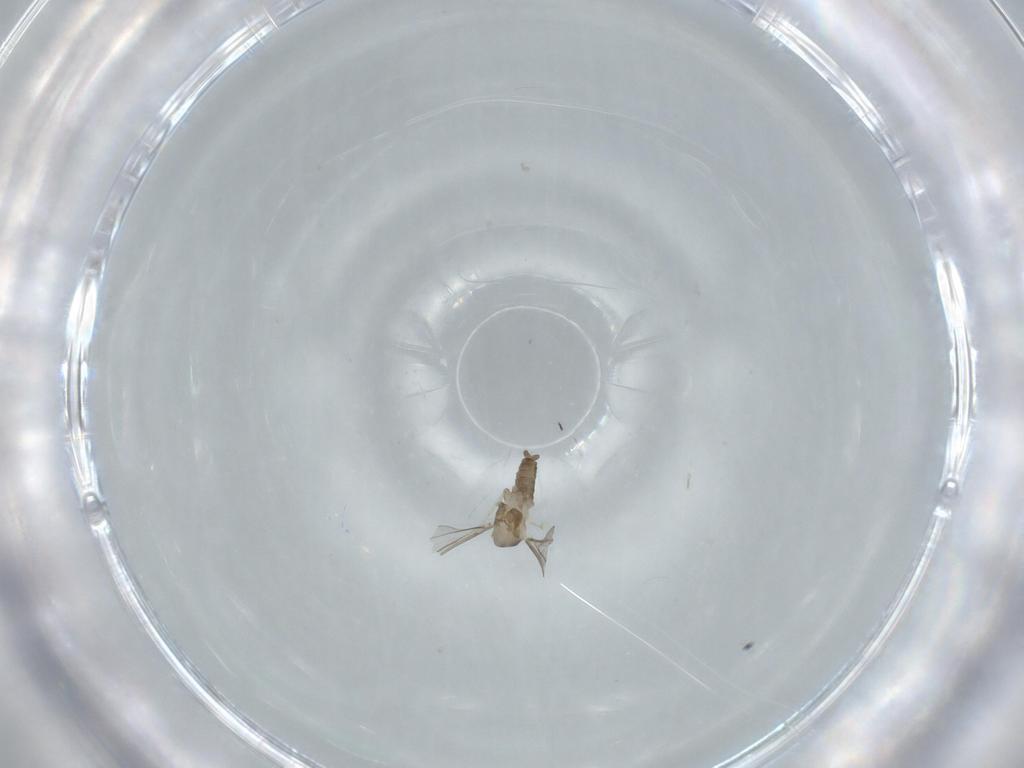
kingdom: Animalia
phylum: Arthropoda
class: Insecta
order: Diptera
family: Cecidomyiidae
